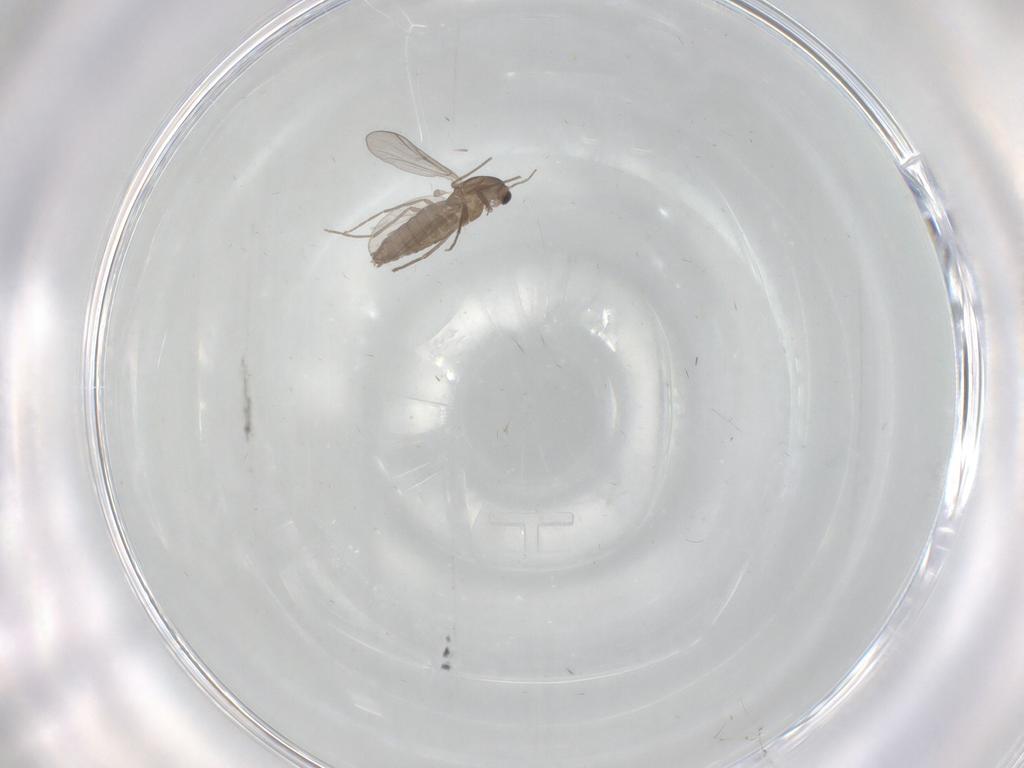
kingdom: Animalia
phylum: Arthropoda
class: Insecta
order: Diptera
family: Chironomidae
